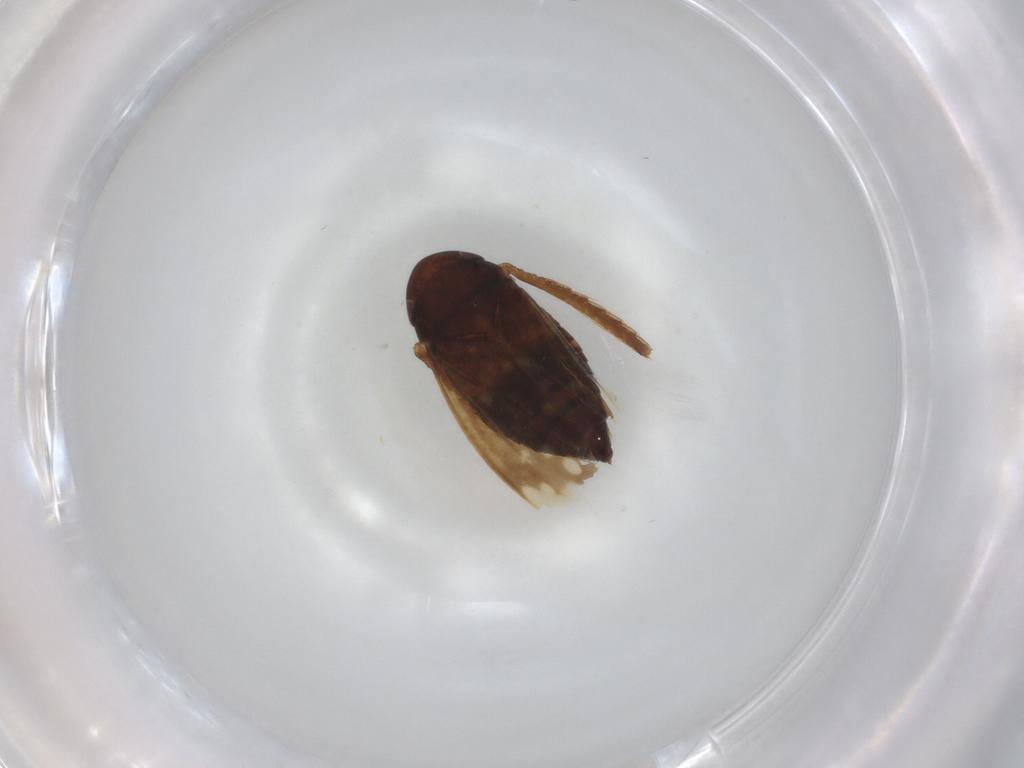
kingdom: Animalia
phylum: Arthropoda
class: Insecta
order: Hemiptera
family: Cicadellidae
